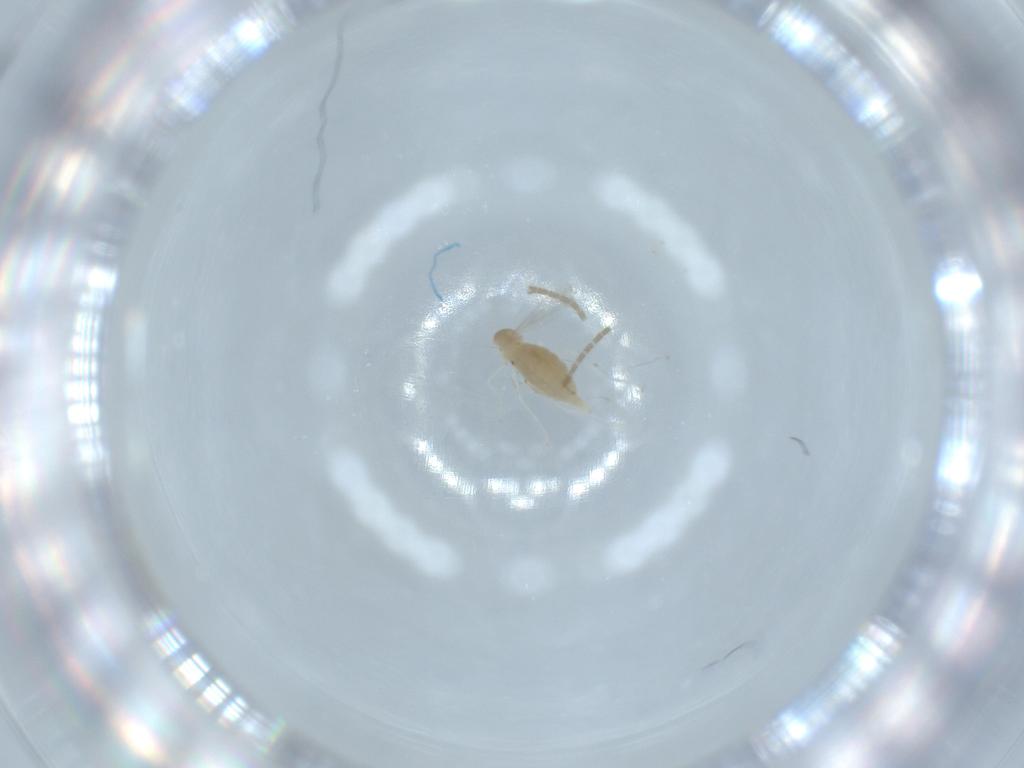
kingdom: Animalia
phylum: Arthropoda
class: Insecta
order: Diptera
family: Cecidomyiidae
